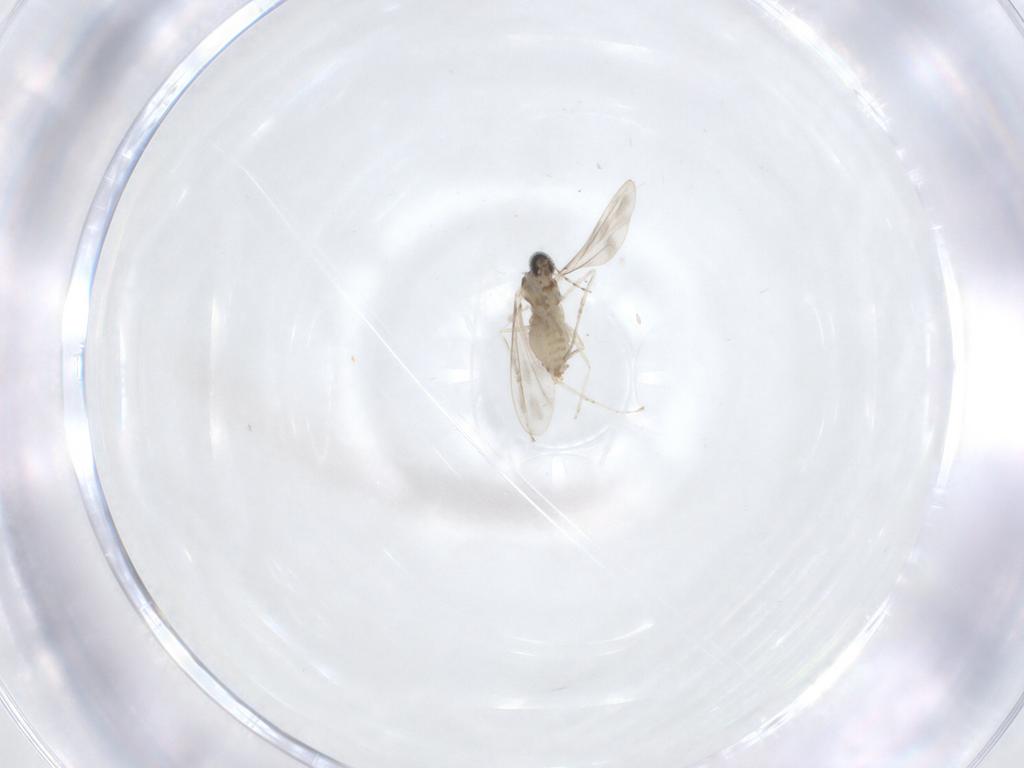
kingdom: Animalia
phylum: Arthropoda
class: Insecta
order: Diptera
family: Cecidomyiidae
